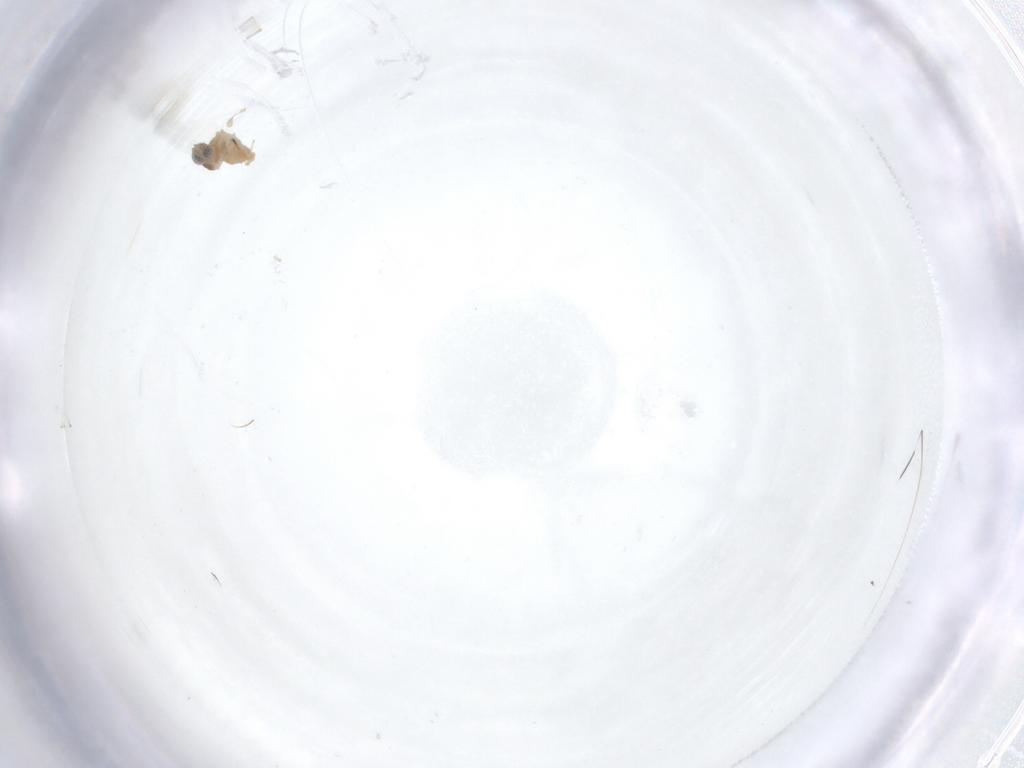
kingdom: Animalia
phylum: Arthropoda
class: Insecta
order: Diptera
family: Cecidomyiidae
